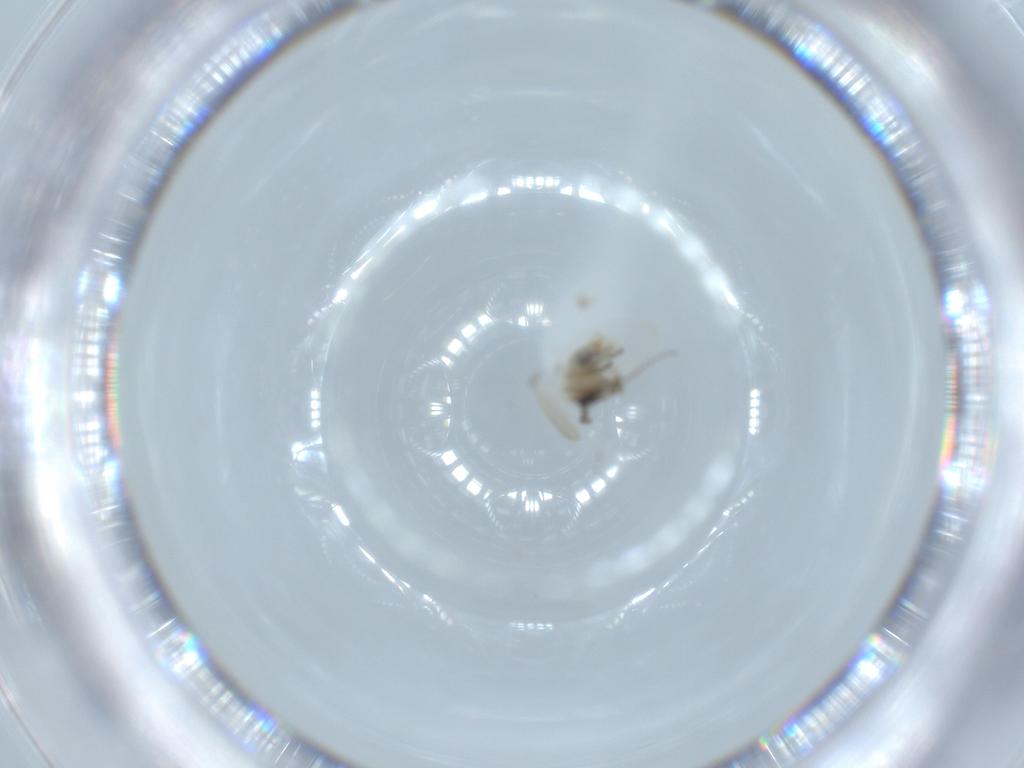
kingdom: Animalia
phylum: Arthropoda
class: Insecta
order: Diptera
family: Psychodidae
